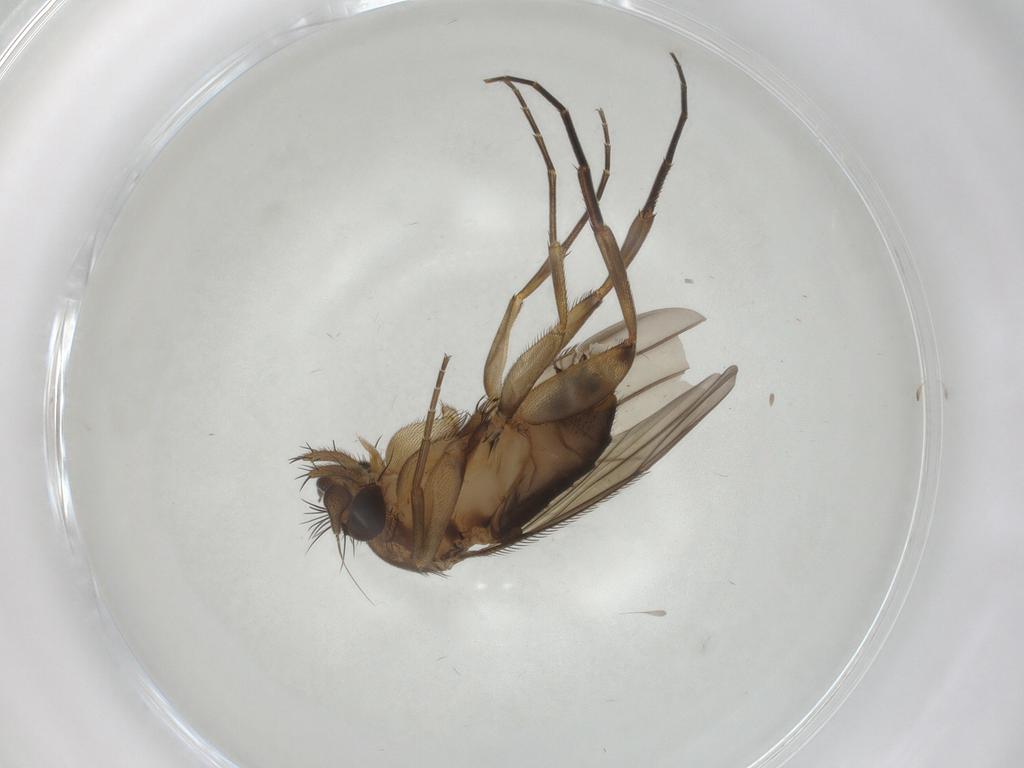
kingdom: Animalia
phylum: Arthropoda
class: Insecta
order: Diptera
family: Phoridae
